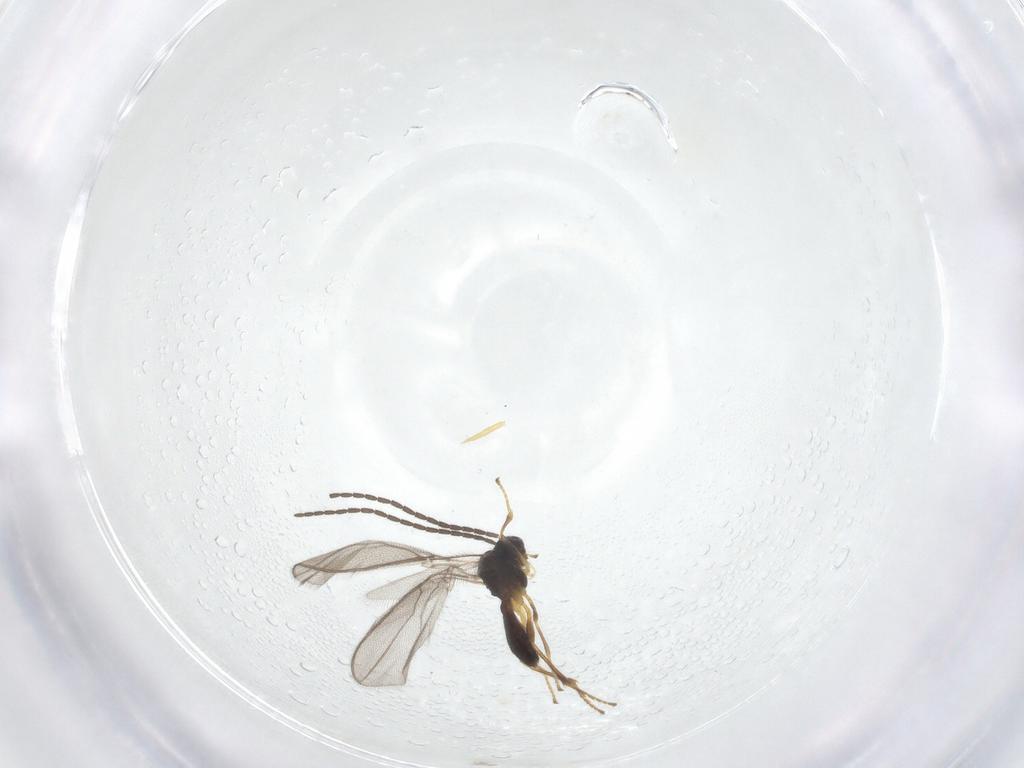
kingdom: Animalia
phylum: Arthropoda
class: Insecta
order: Hymenoptera
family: Braconidae
